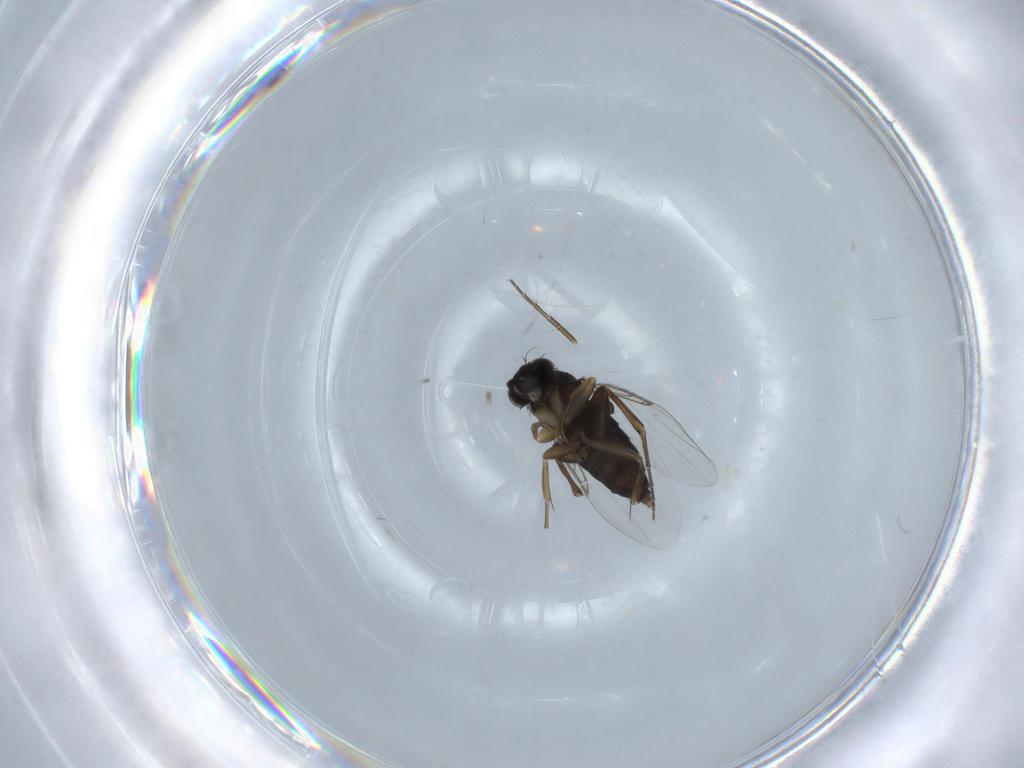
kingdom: Animalia
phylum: Arthropoda
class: Insecta
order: Diptera
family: Phoridae
